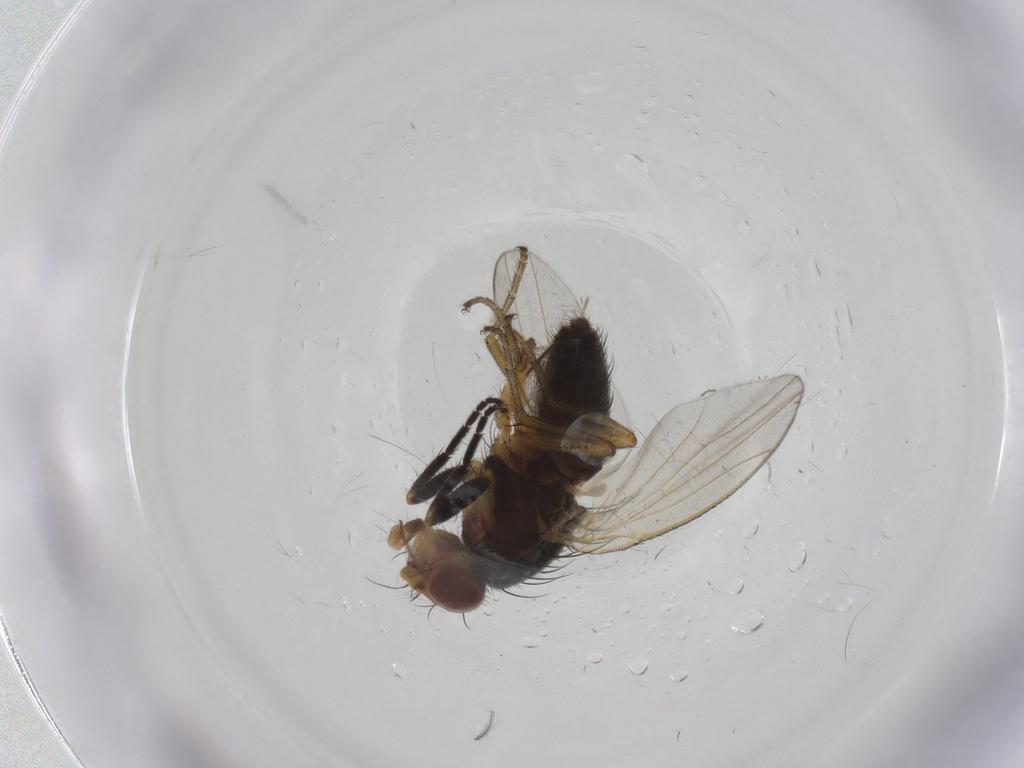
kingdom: Animalia
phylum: Arthropoda
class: Insecta
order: Diptera
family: Heleomyzidae
